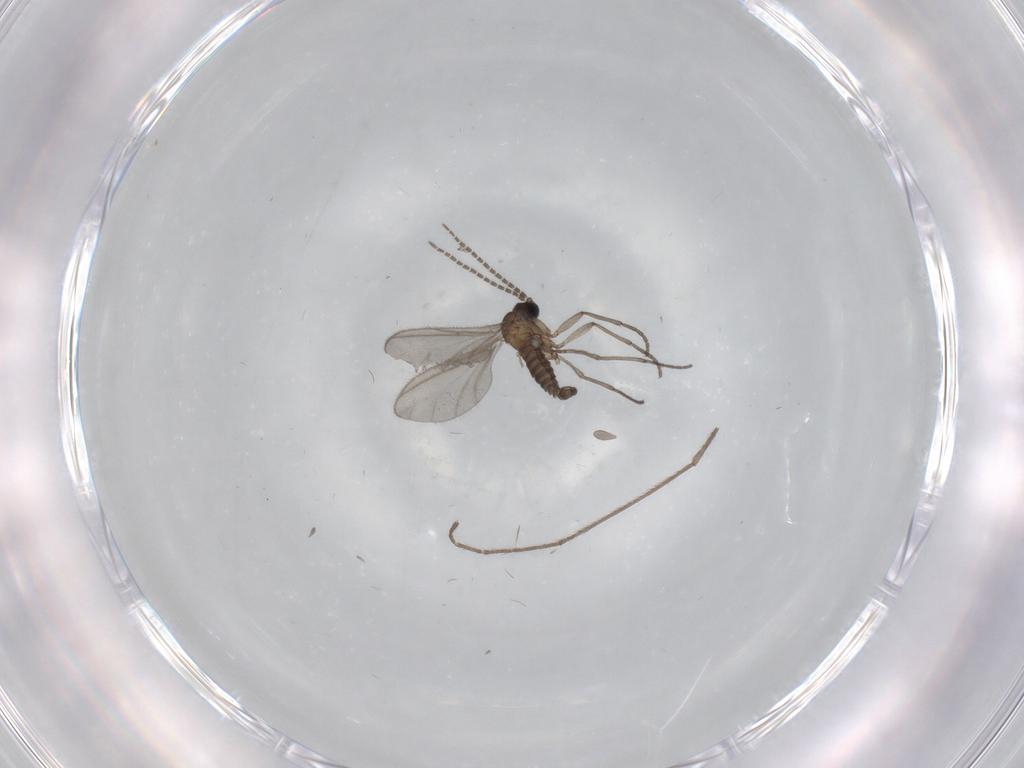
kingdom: Animalia
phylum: Arthropoda
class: Insecta
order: Diptera
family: Sciaridae
